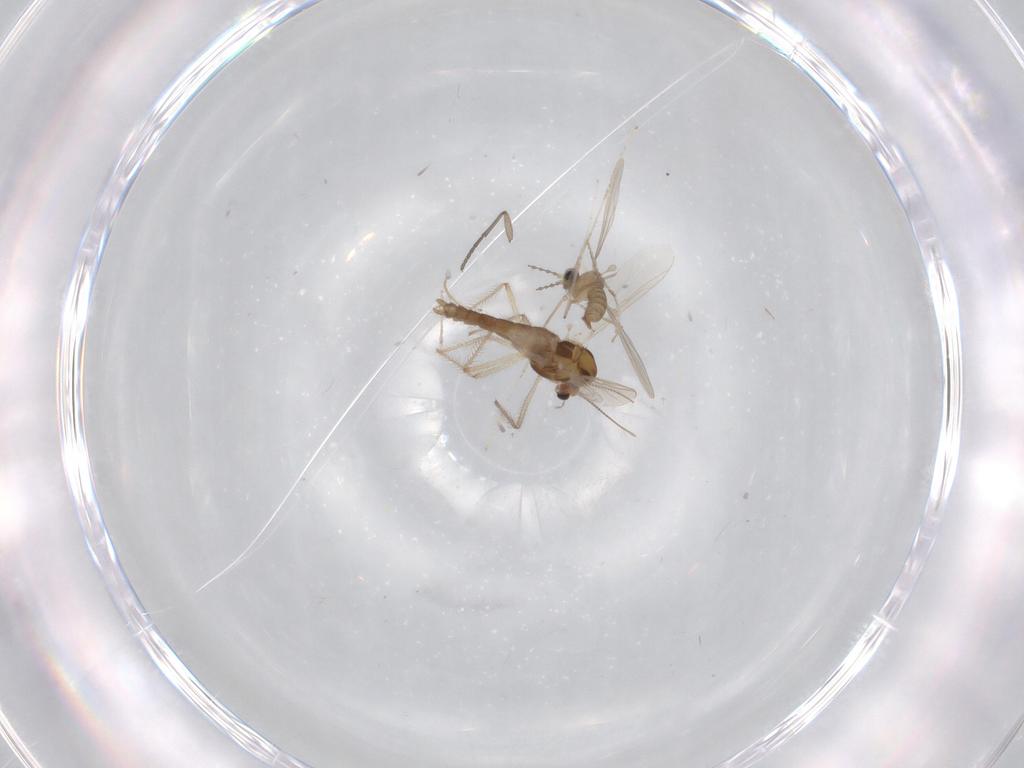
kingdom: Animalia
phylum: Arthropoda
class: Insecta
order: Diptera
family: Chironomidae
